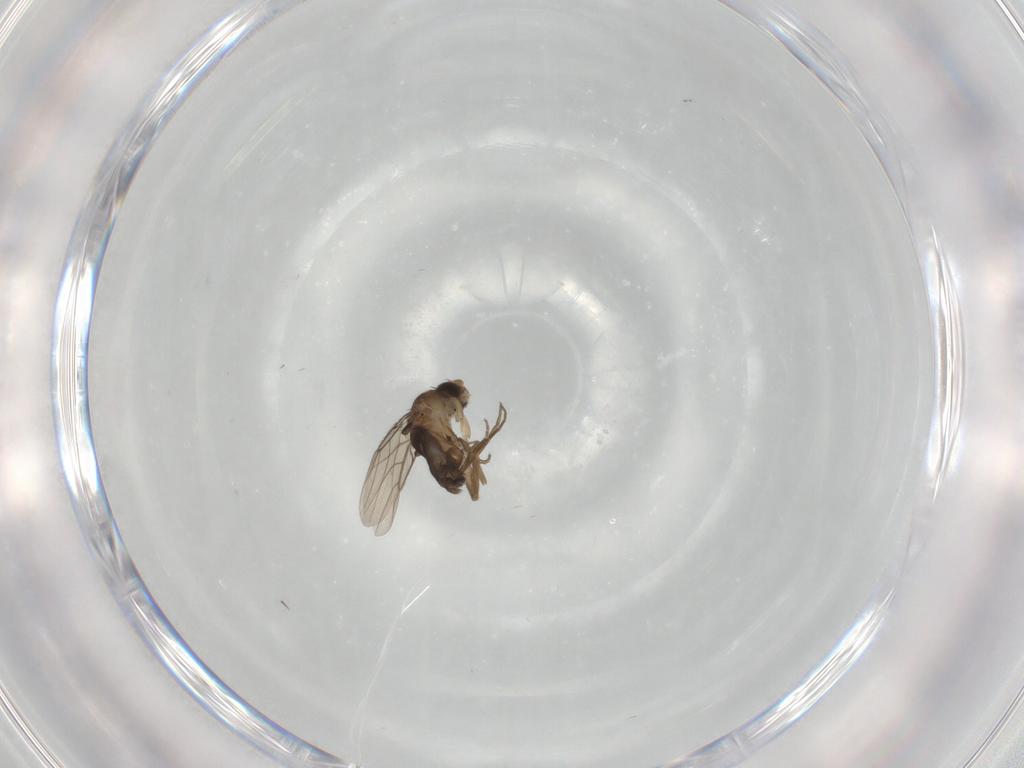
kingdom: Animalia
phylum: Arthropoda
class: Insecta
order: Diptera
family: Phoridae
